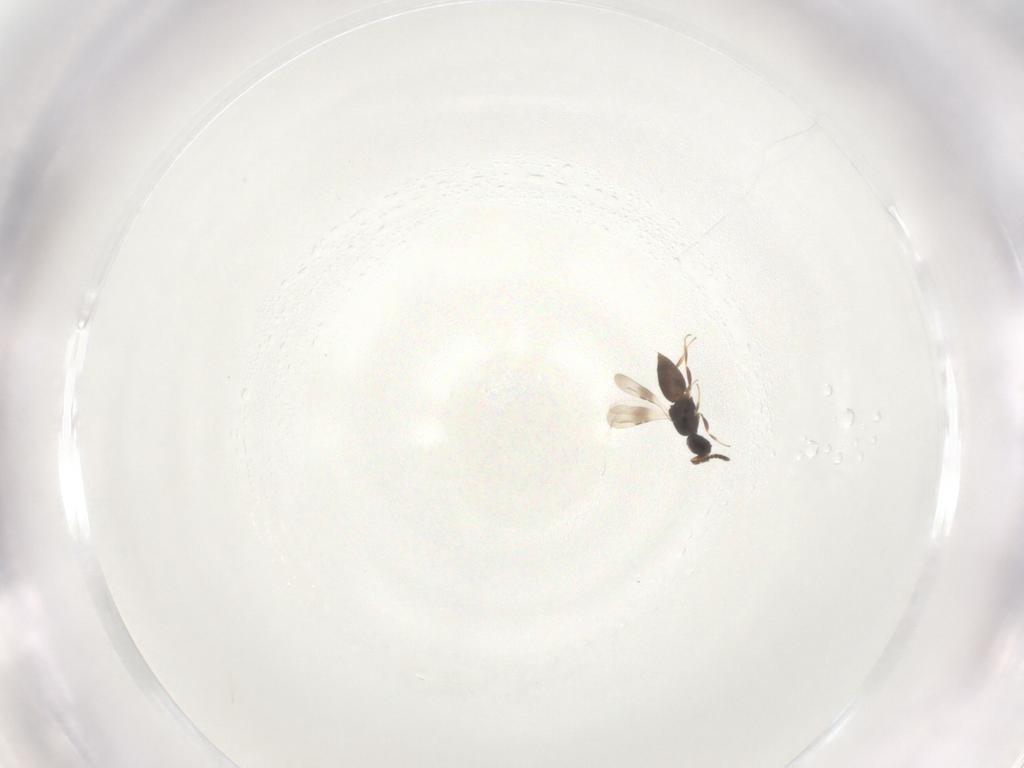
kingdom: Animalia
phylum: Arthropoda
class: Insecta
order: Hymenoptera
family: Ceraphronidae
